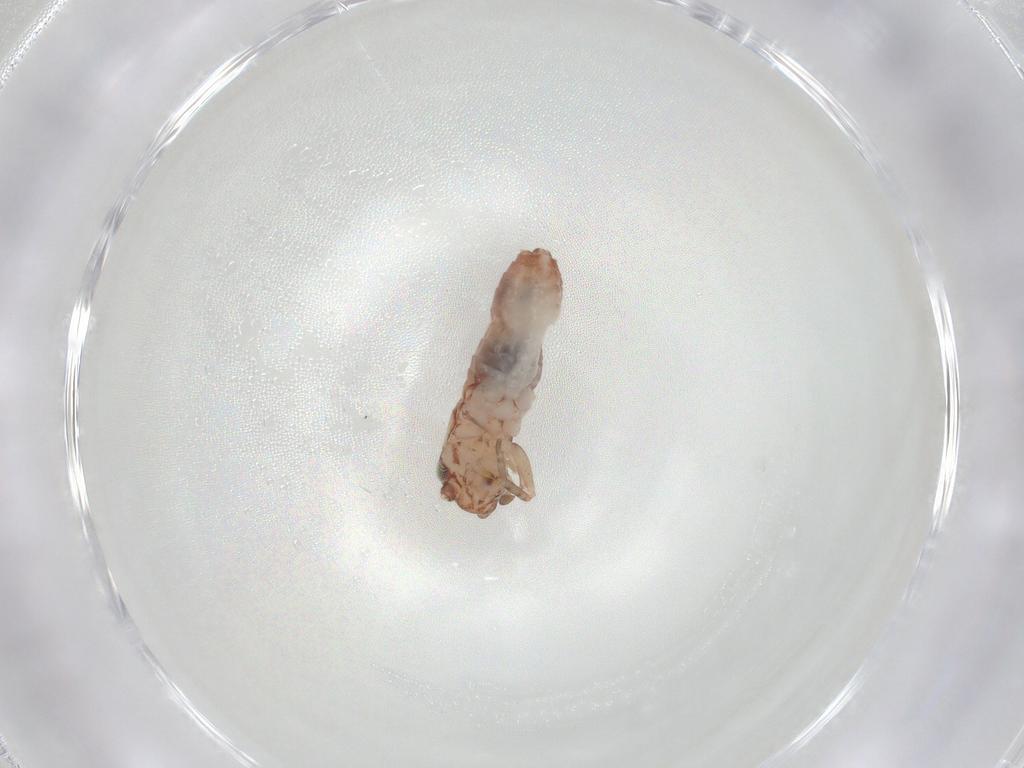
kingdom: Animalia
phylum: Arthropoda
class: Insecta
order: Orthoptera
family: Gryllidae
